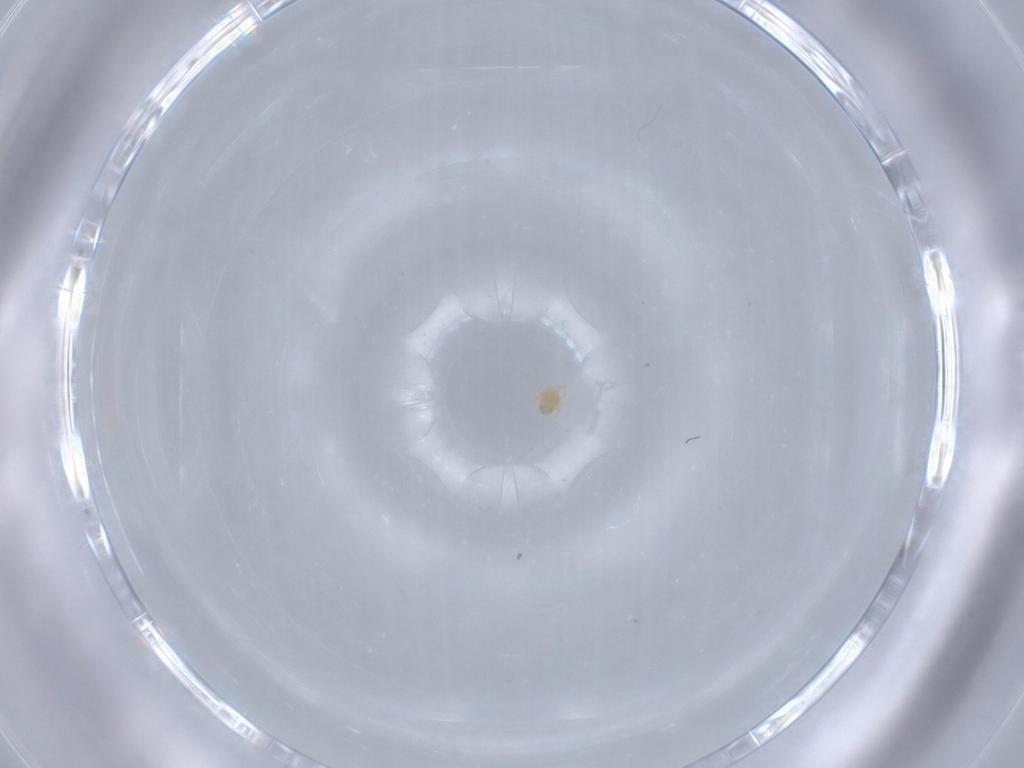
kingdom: Animalia
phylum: Arthropoda
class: Arachnida
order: Trombidiformes
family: Sperchontidae
